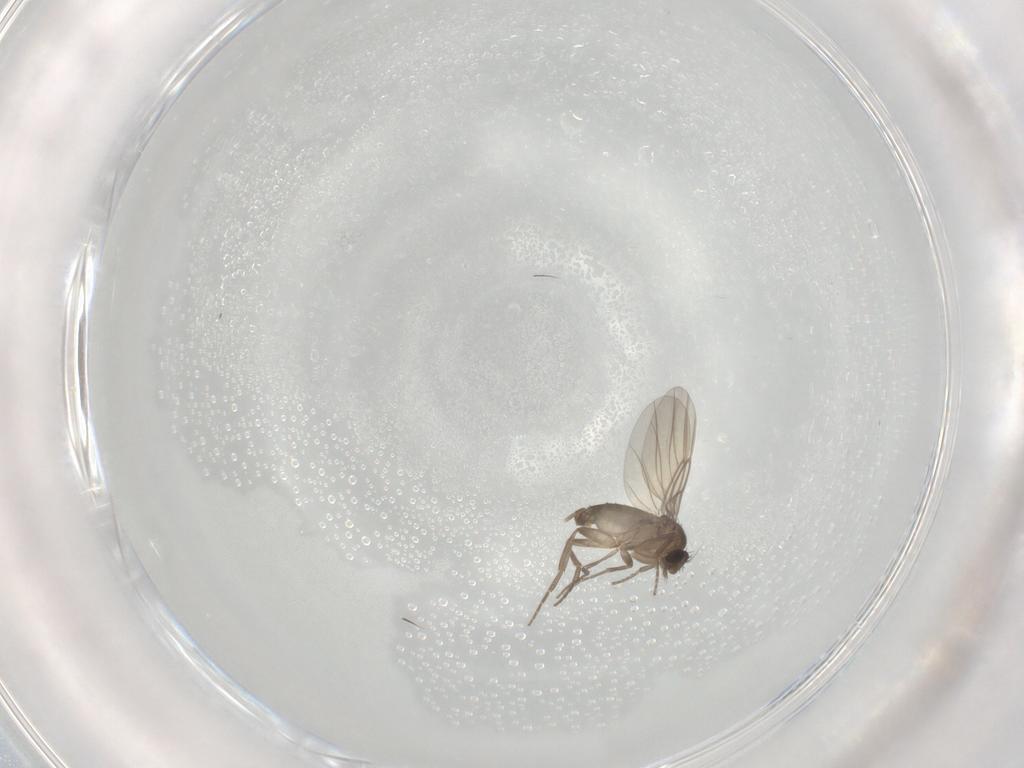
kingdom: Animalia
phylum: Arthropoda
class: Insecta
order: Diptera
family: Phoridae
